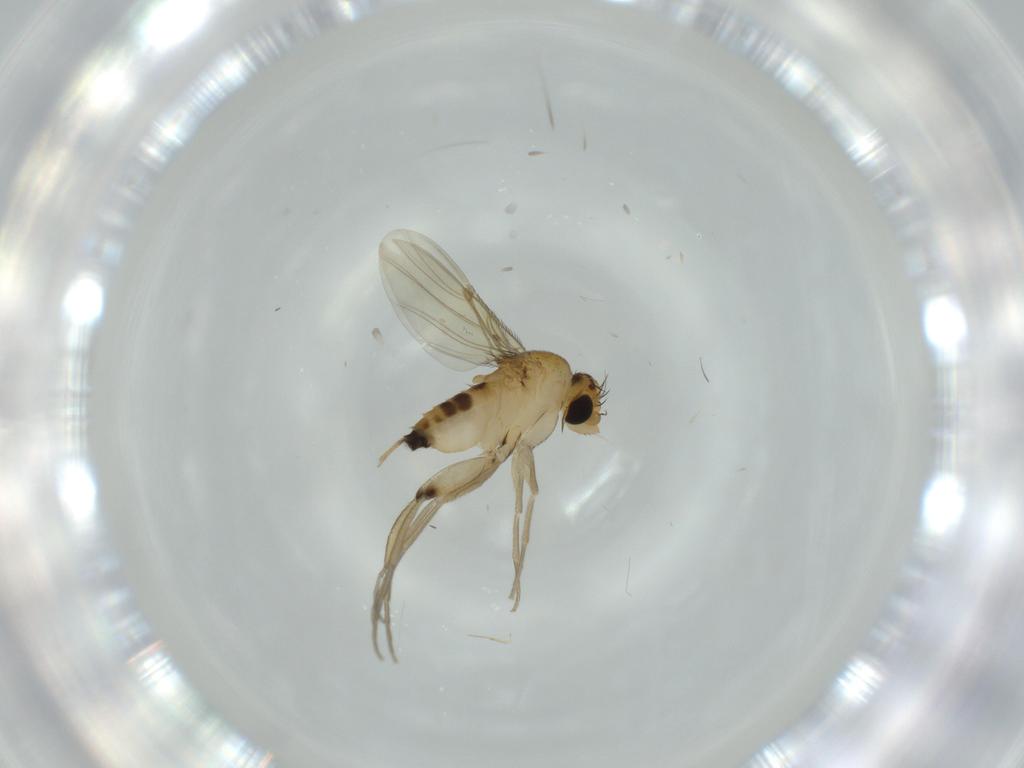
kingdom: Animalia
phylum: Arthropoda
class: Insecta
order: Diptera
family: Phoridae
